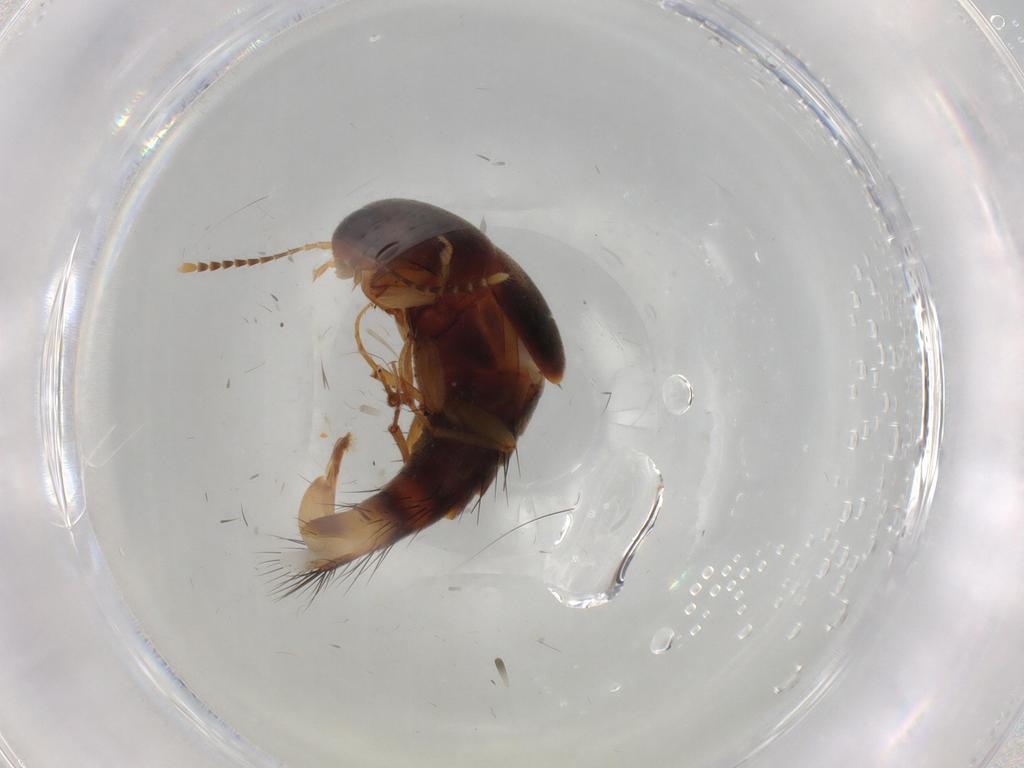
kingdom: Animalia
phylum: Arthropoda
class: Insecta
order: Coleoptera
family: Staphylinidae
